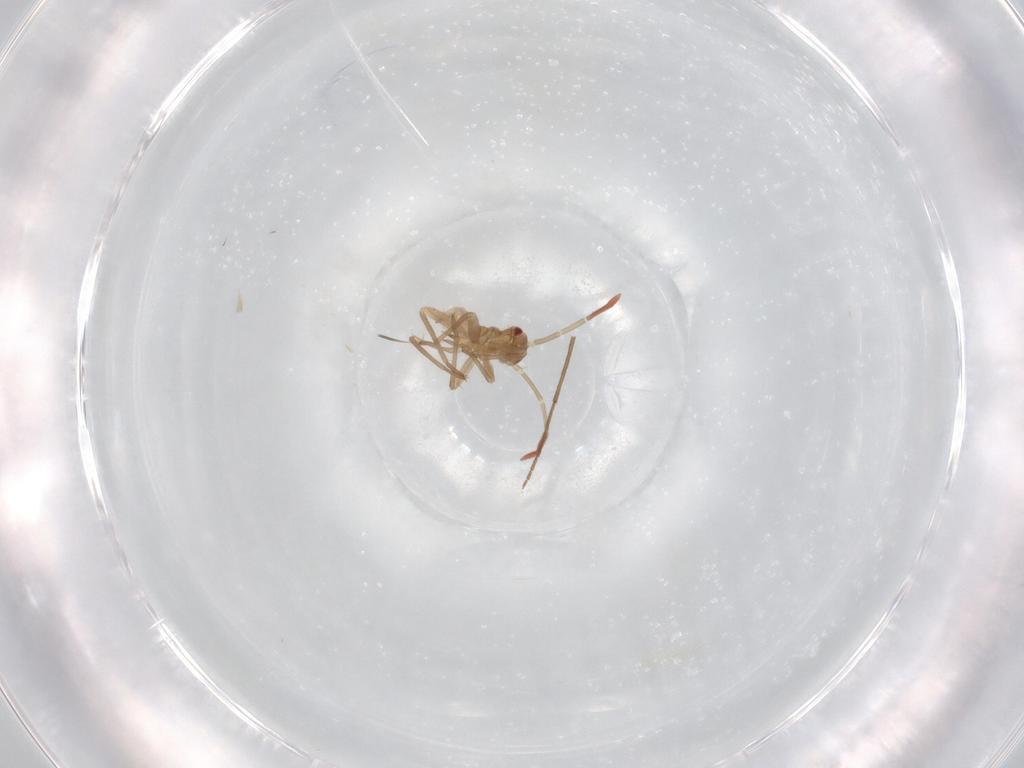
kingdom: Animalia
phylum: Arthropoda
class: Insecta
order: Hemiptera
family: Miridae
